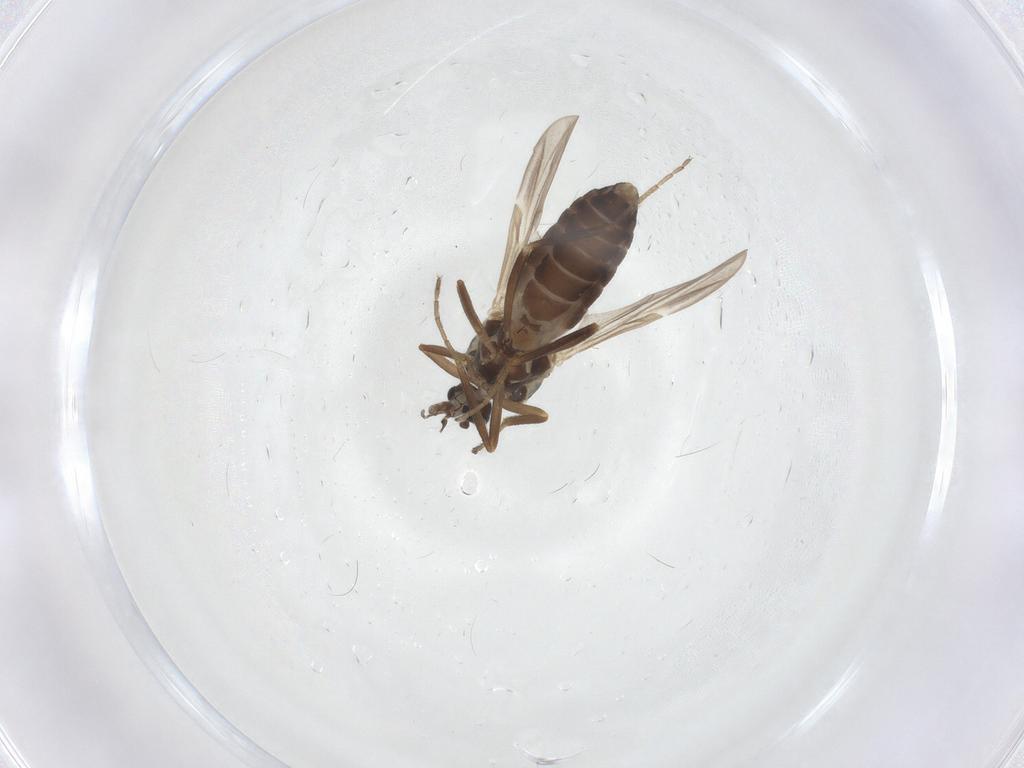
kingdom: Animalia
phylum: Arthropoda
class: Insecta
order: Diptera
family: Ceratopogonidae
